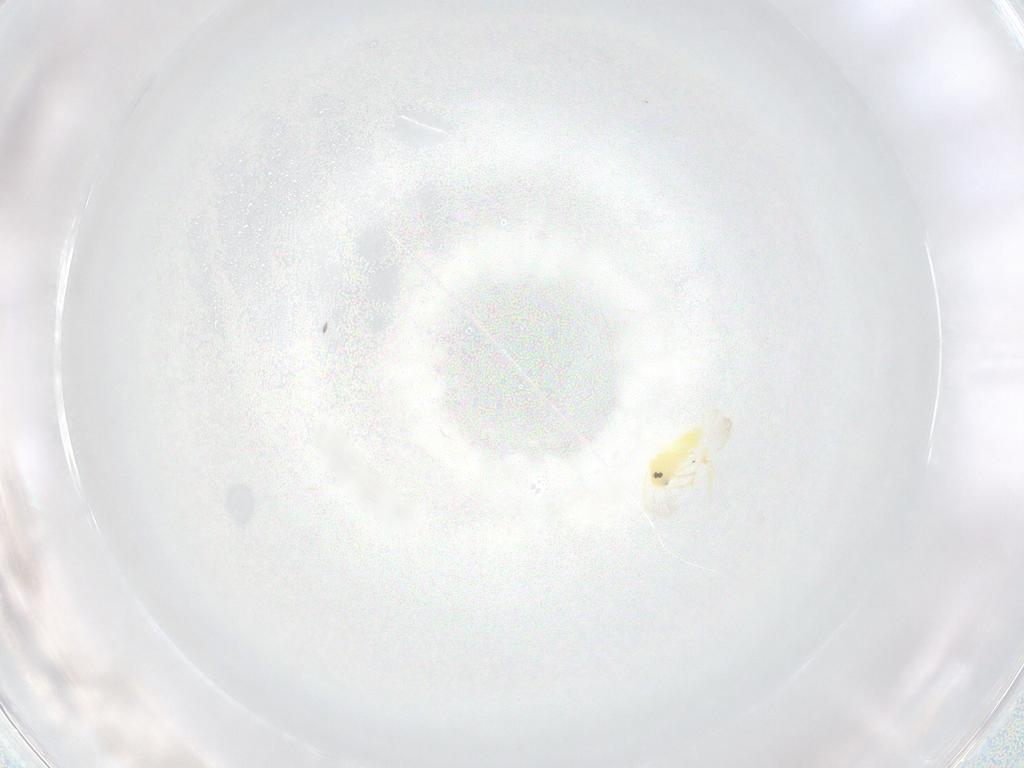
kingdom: Animalia
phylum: Arthropoda
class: Insecta
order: Hemiptera
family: Aleyrodidae
